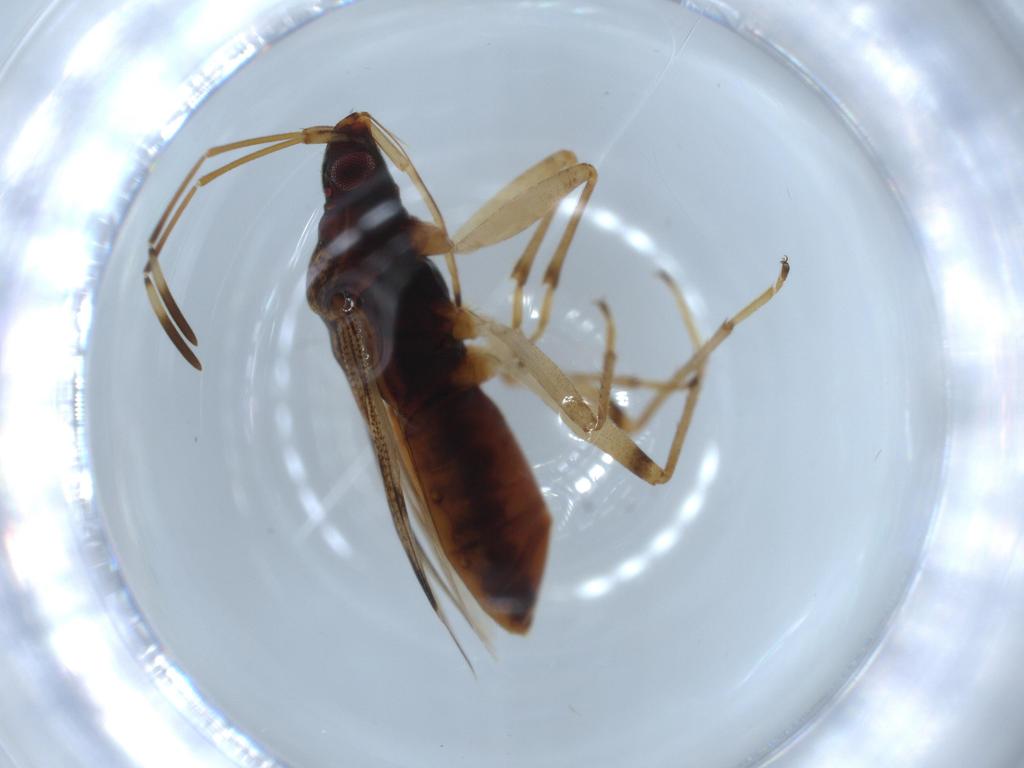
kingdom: Animalia
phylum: Arthropoda
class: Insecta
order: Hemiptera
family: Rhyparochromidae
